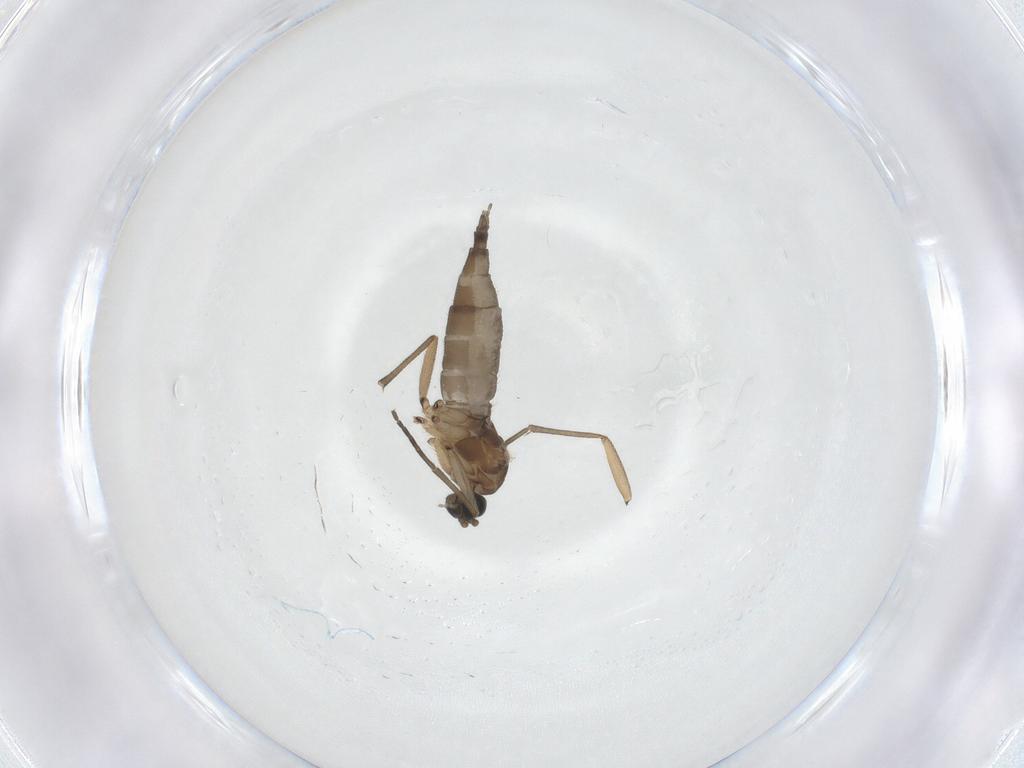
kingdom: Animalia
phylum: Arthropoda
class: Insecta
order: Diptera
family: Sciaridae
